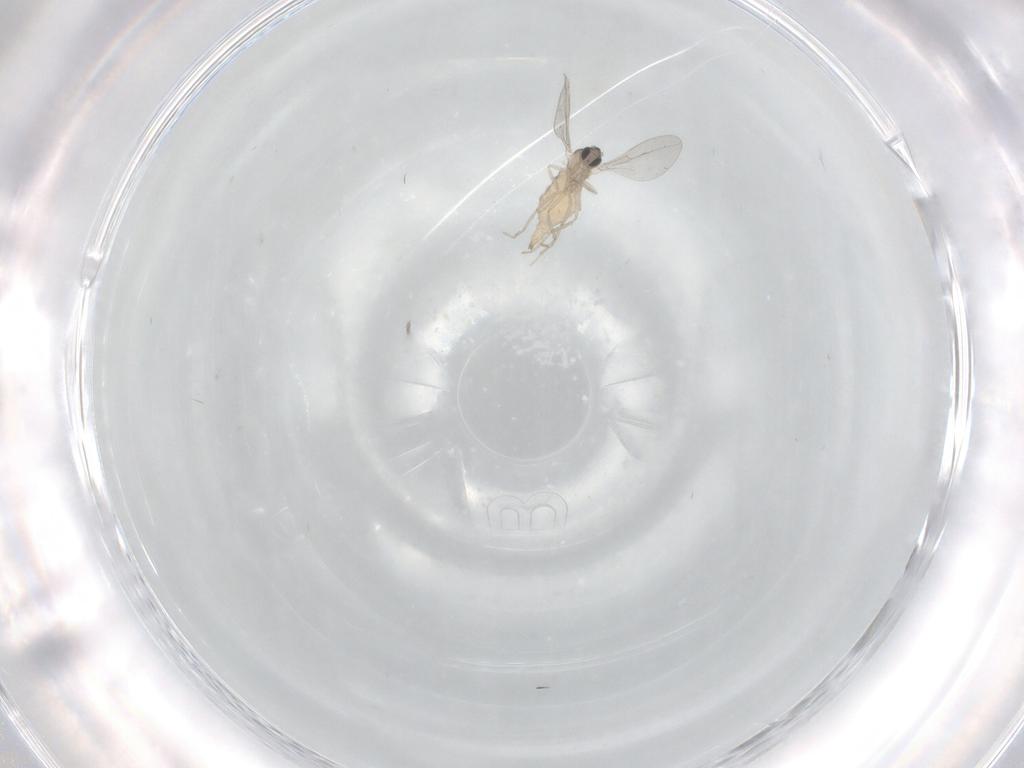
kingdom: Animalia
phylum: Arthropoda
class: Insecta
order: Diptera
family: Cecidomyiidae
